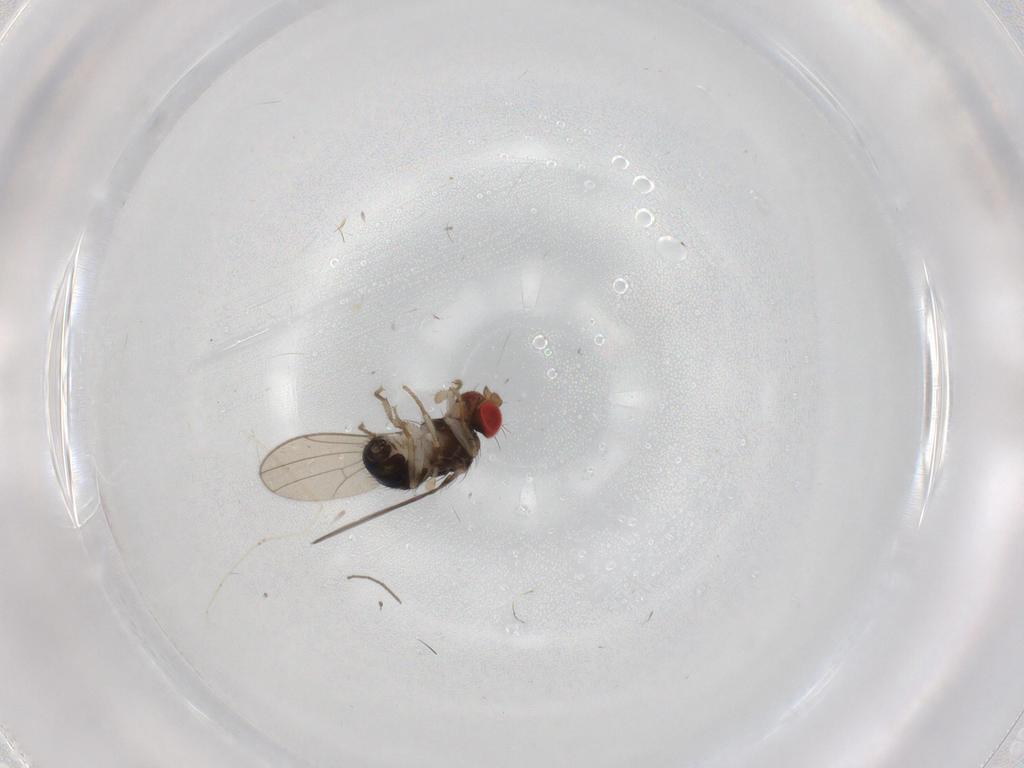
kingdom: Animalia
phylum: Arthropoda
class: Insecta
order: Diptera
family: Drosophilidae
